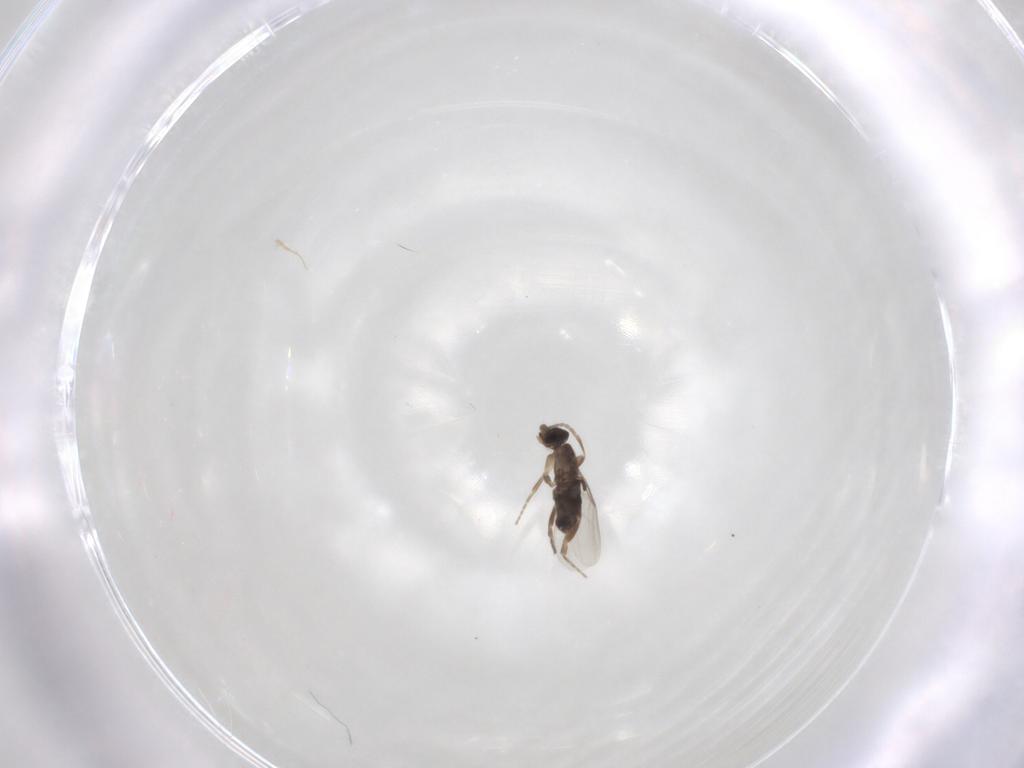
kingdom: Animalia
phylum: Arthropoda
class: Insecta
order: Diptera
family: Phoridae
